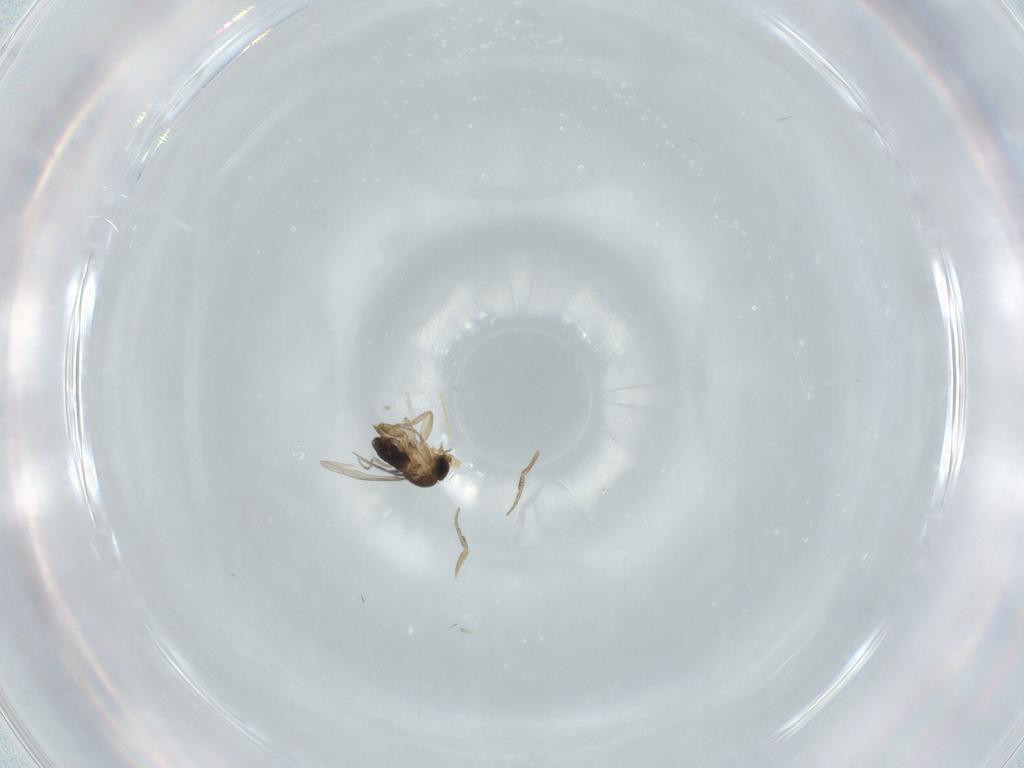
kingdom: Animalia
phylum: Arthropoda
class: Insecta
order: Diptera
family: Phoridae
